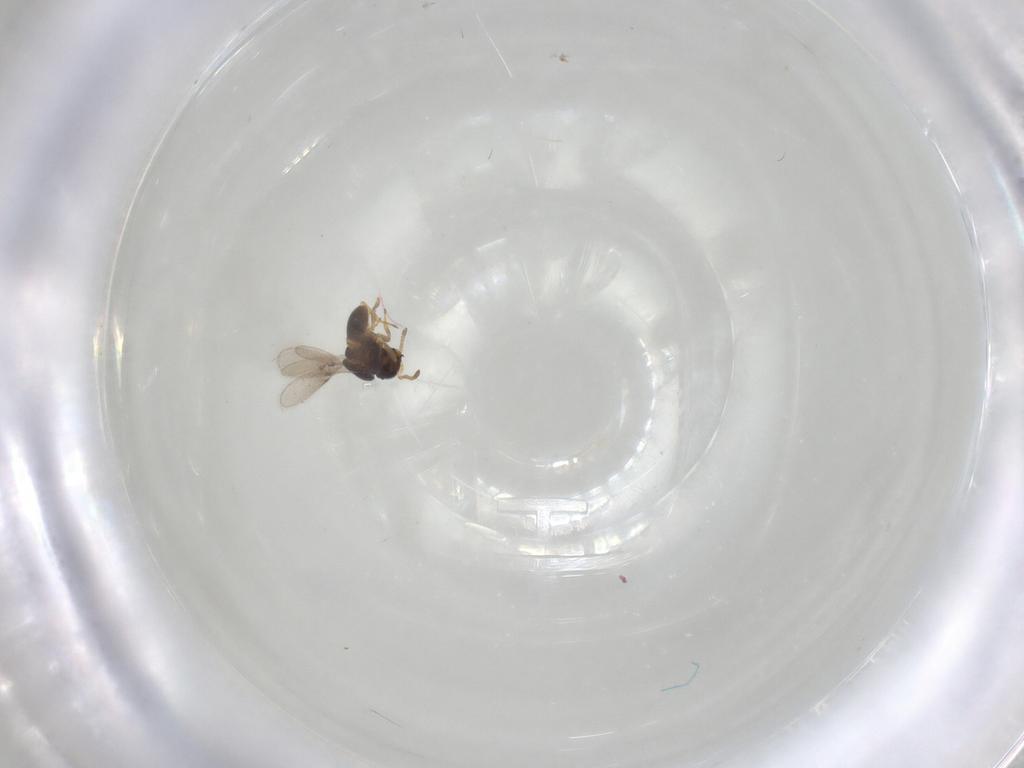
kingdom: Animalia
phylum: Arthropoda
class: Insecta
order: Hymenoptera
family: Scelionidae
